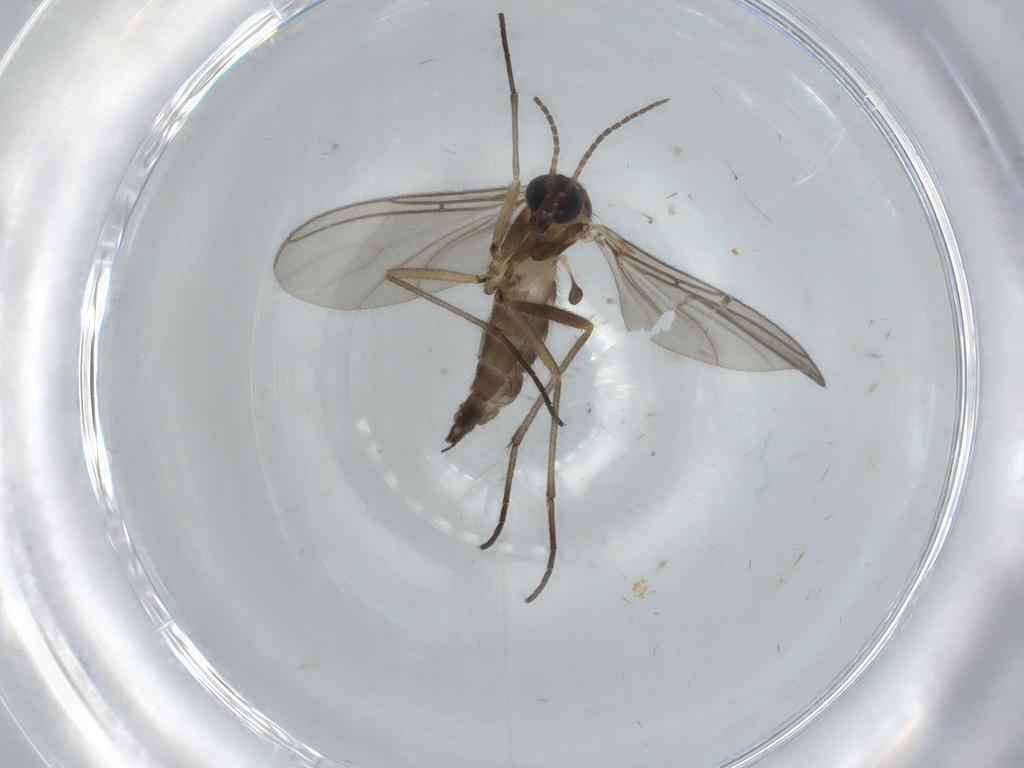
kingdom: Animalia
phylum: Arthropoda
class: Insecta
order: Diptera
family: Sciaridae
